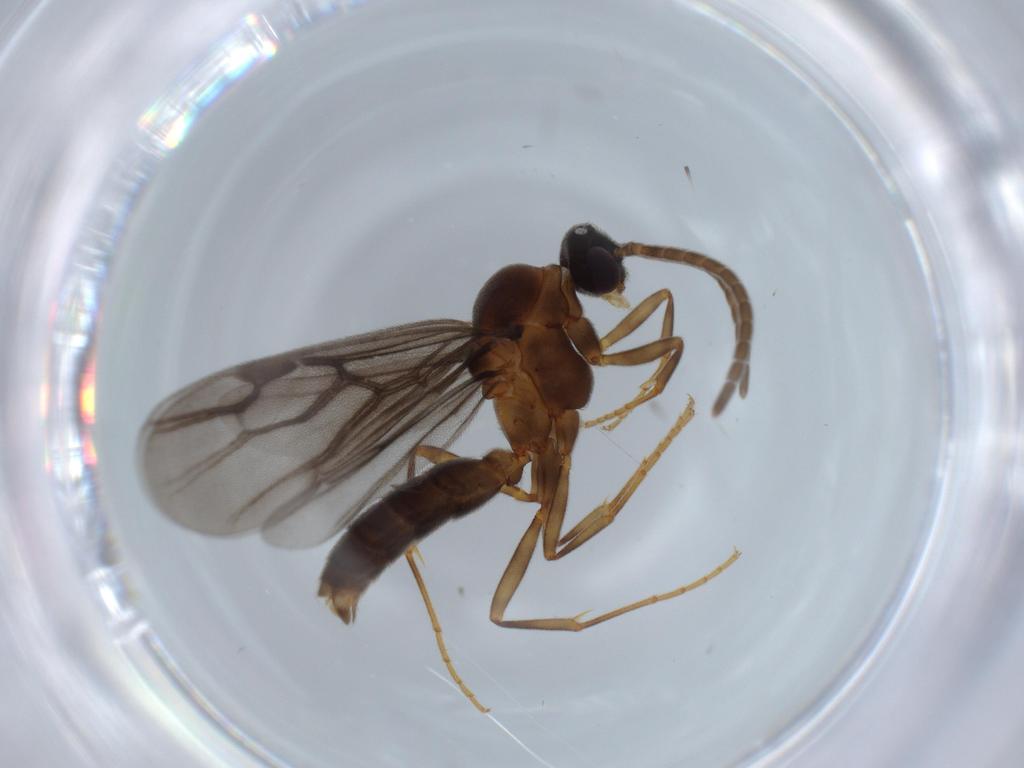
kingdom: Animalia
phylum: Arthropoda
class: Insecta
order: Hymenoptera
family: Formicidae
